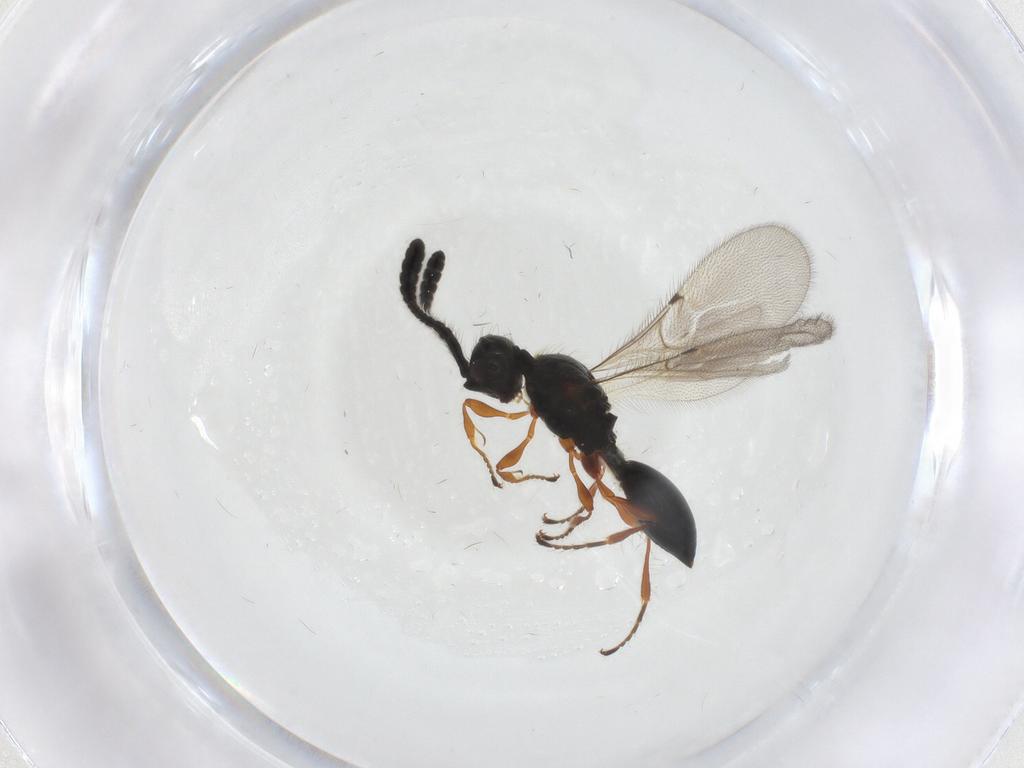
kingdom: Animalia
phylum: Arthropoda
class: Insecta
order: Hymenoptera
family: Diapriidae
